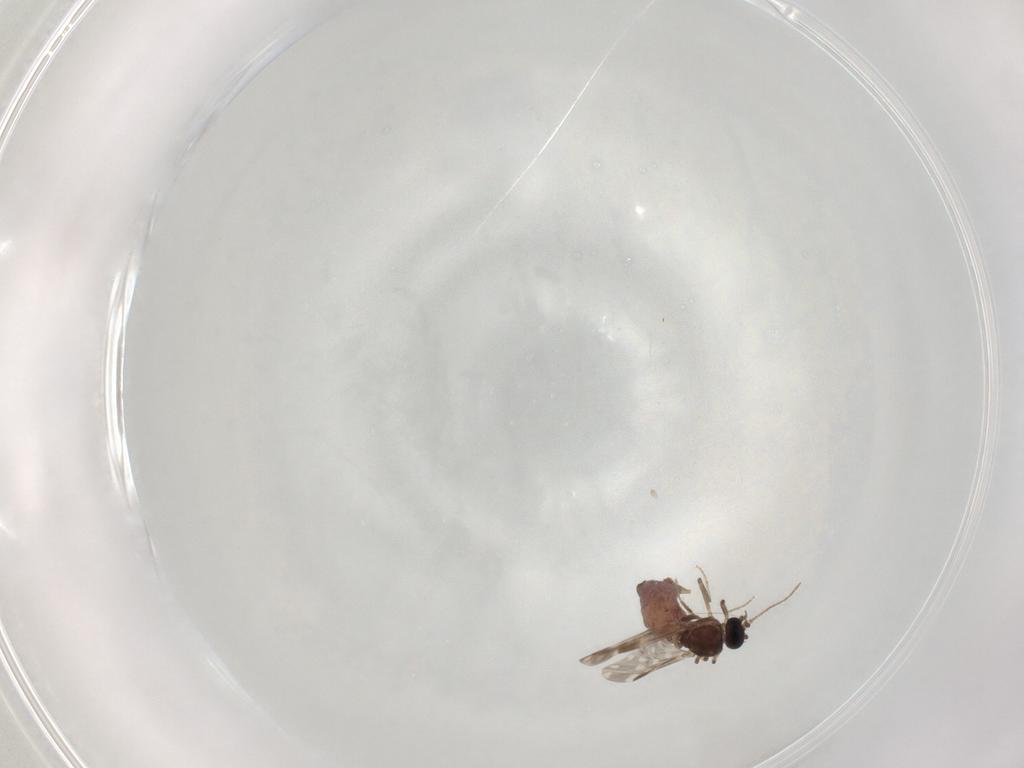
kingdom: Animalia
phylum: Arthropoda
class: Insecta
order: Diptera
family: Ceratopogonidae
